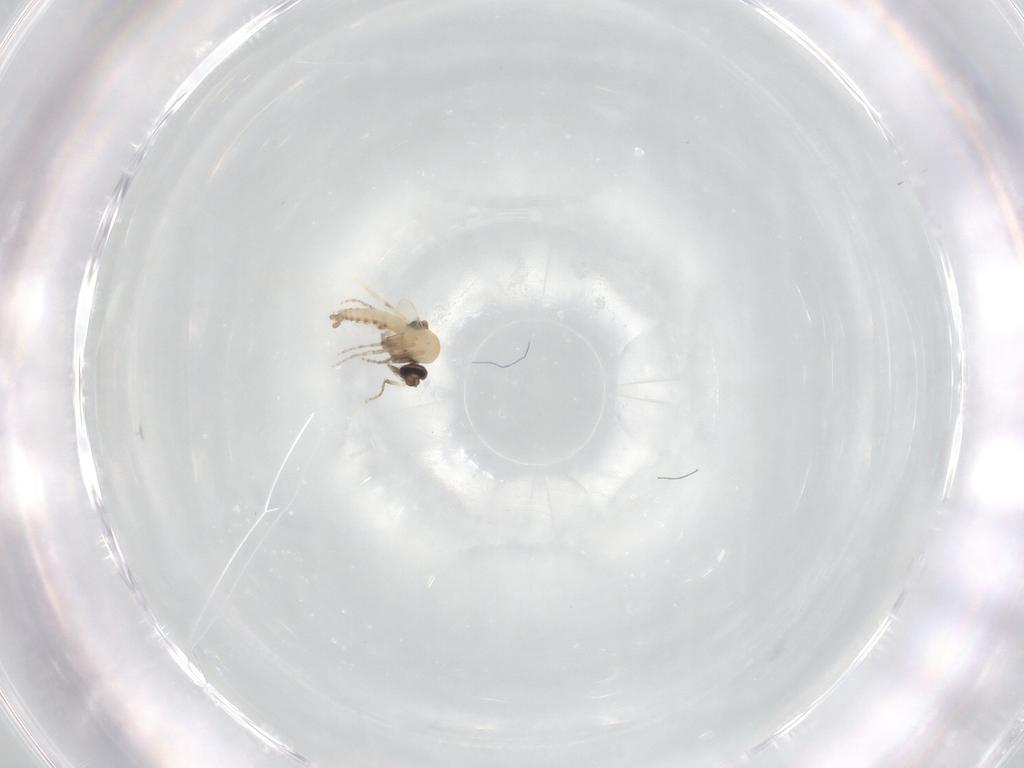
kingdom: Animalia
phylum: Arthropoda
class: Insecta
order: Diptera
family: Ceratopogonidae
